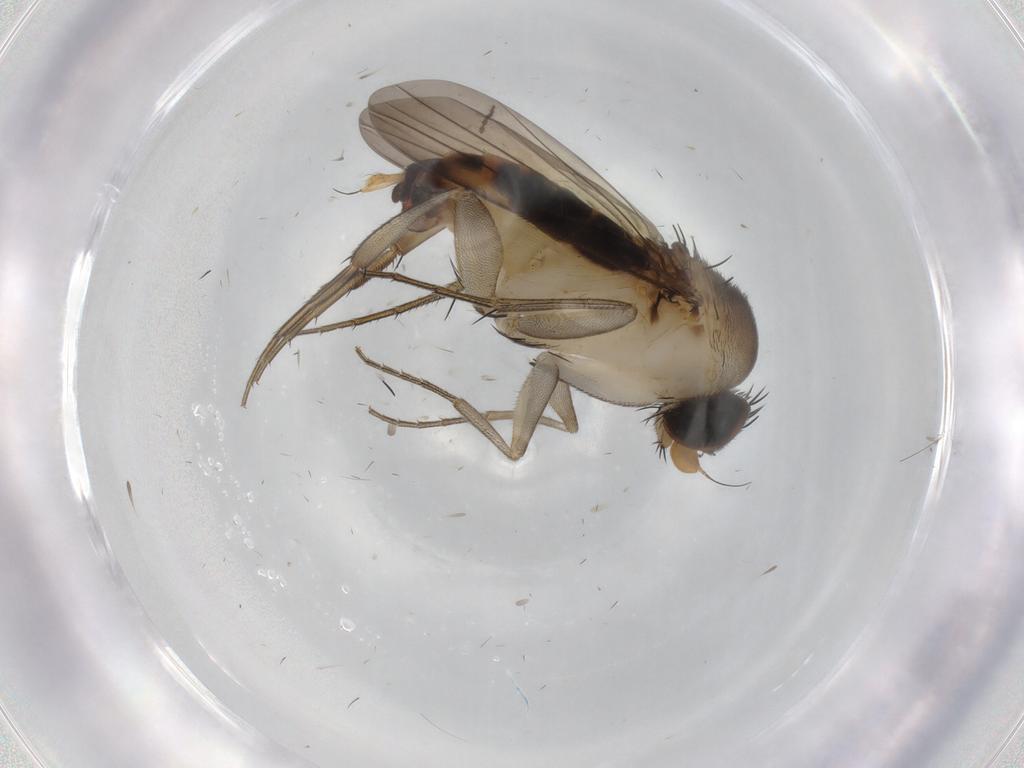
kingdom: Animalia
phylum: Arthropoda
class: Insecta
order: Diptera
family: Phoridae
